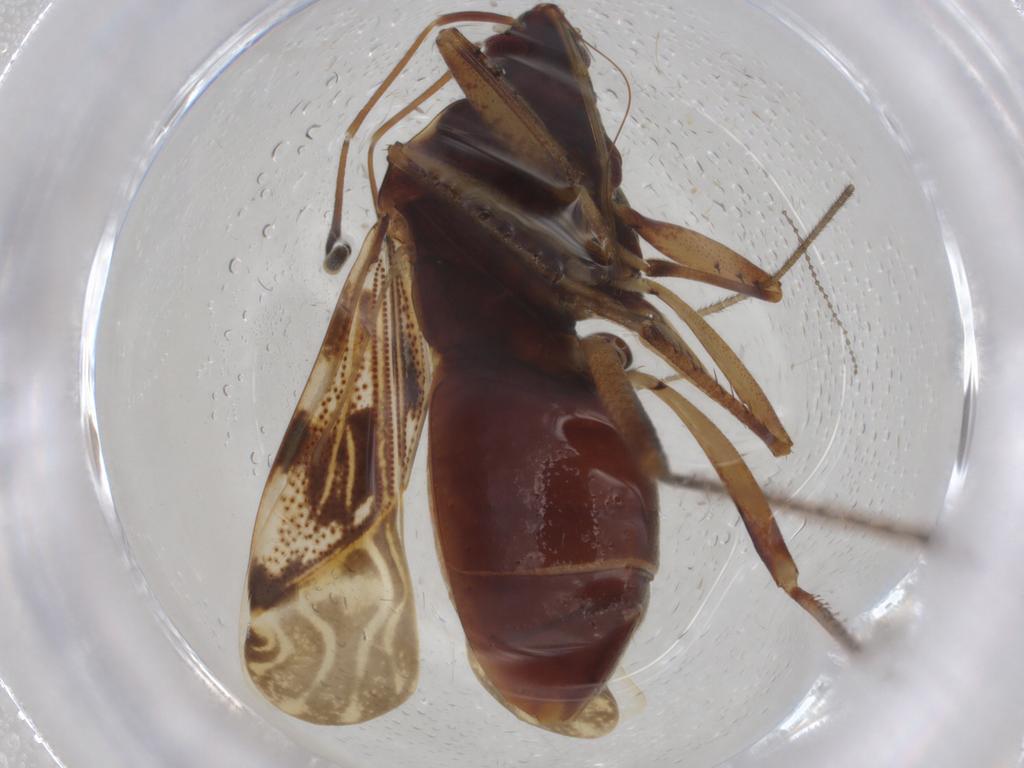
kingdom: Animalia
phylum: Arthropoda
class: Insecta
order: Hemiptera
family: Rhyparochromidae
